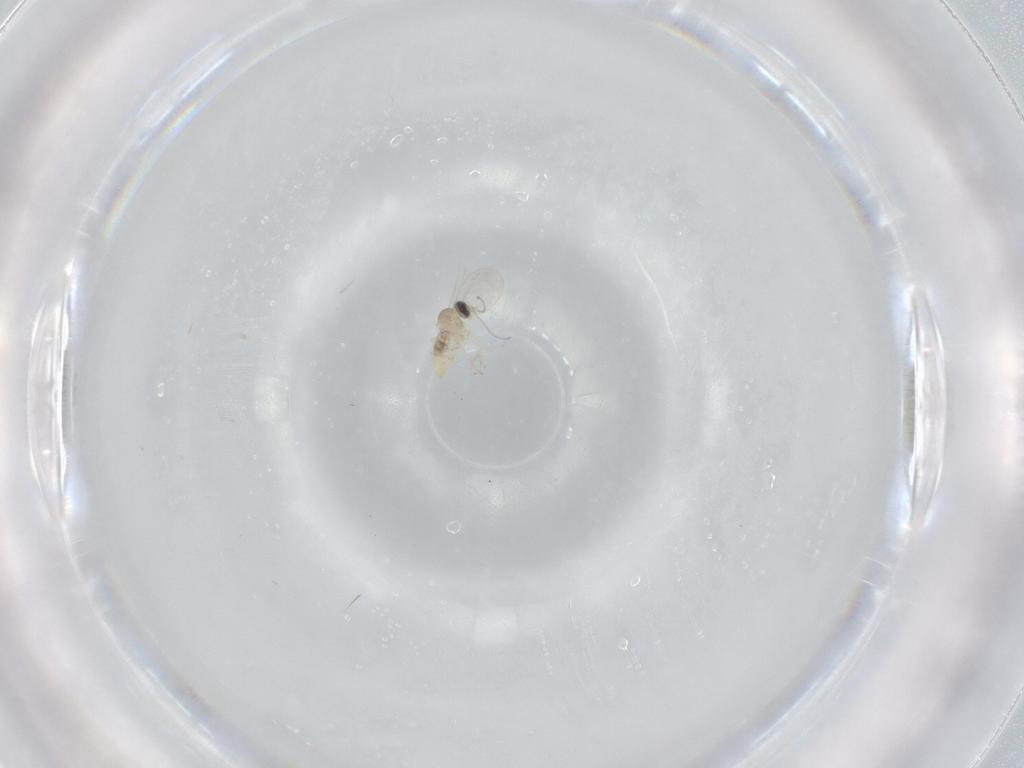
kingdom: Animalia
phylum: Arthropoda
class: Insecta
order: Diptera
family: Cecidomyiidae
